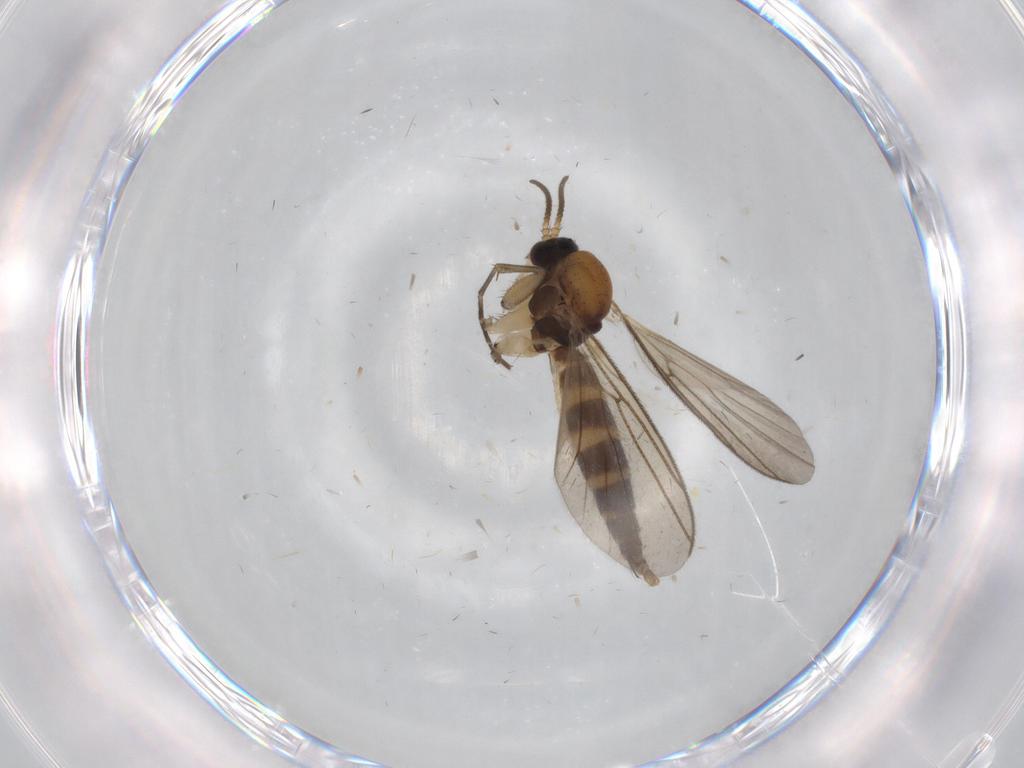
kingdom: Animalia
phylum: Arthropoda
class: Insecta
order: Diptera
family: Mycetophilidae
